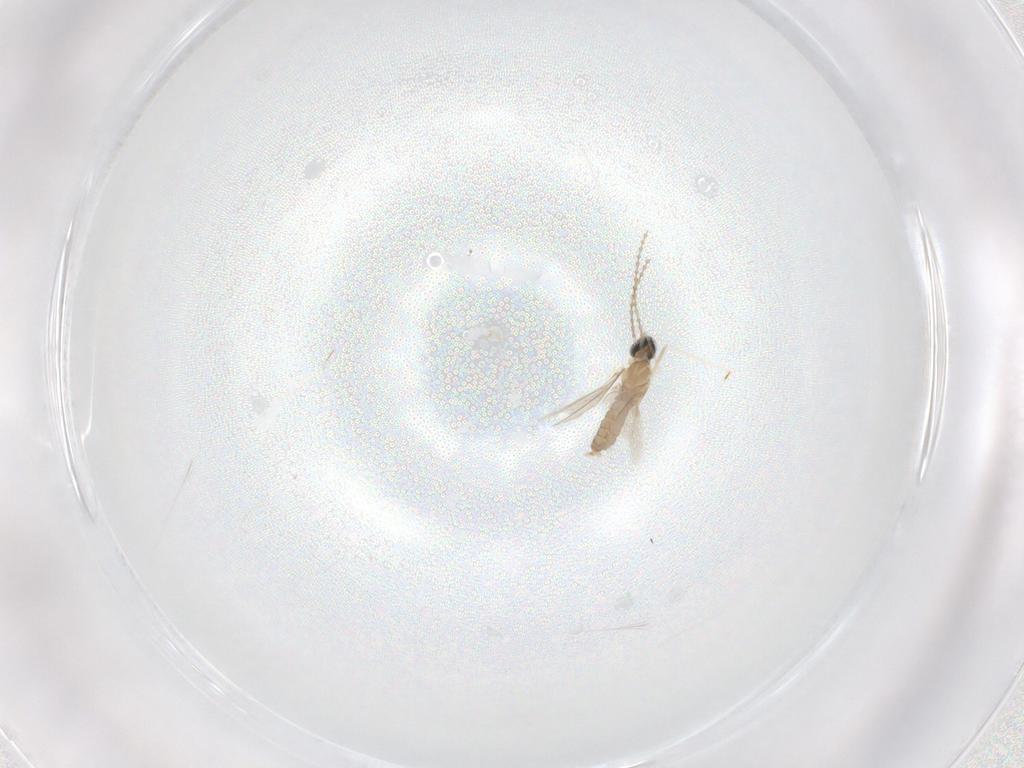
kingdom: Animalia
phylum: Arthropoda
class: Insecta
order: Diptera
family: Cecidomyiidae
